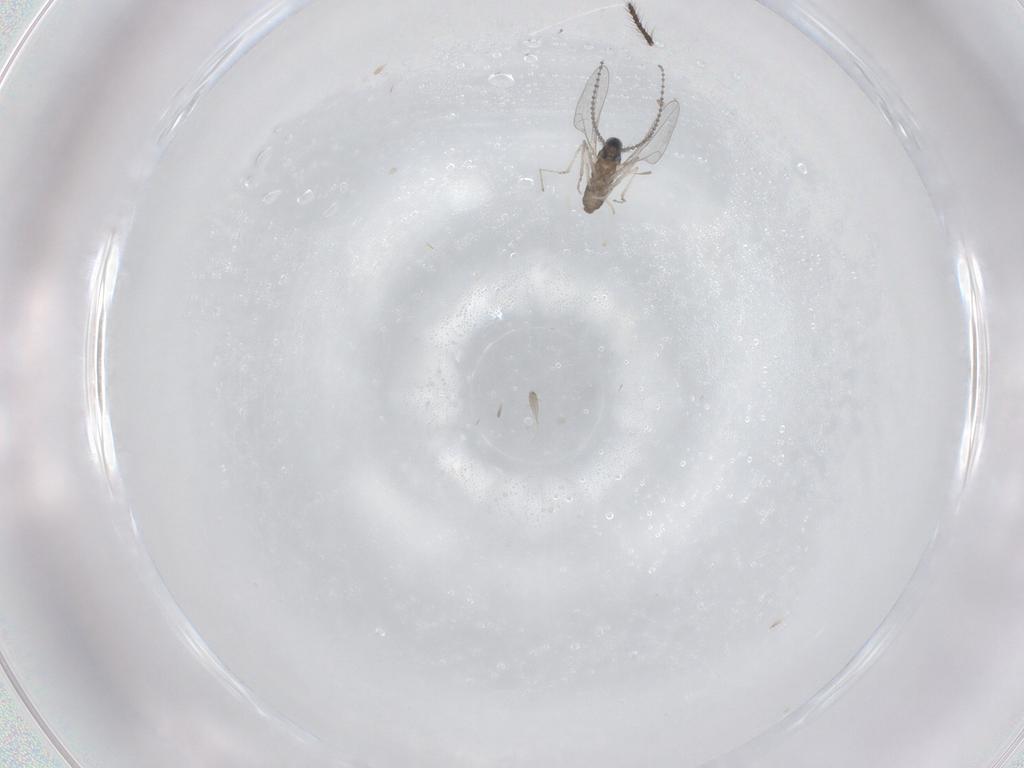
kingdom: Animalia
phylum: Arthropoda
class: Insecta
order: Diptera
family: Cecidomyiidae
